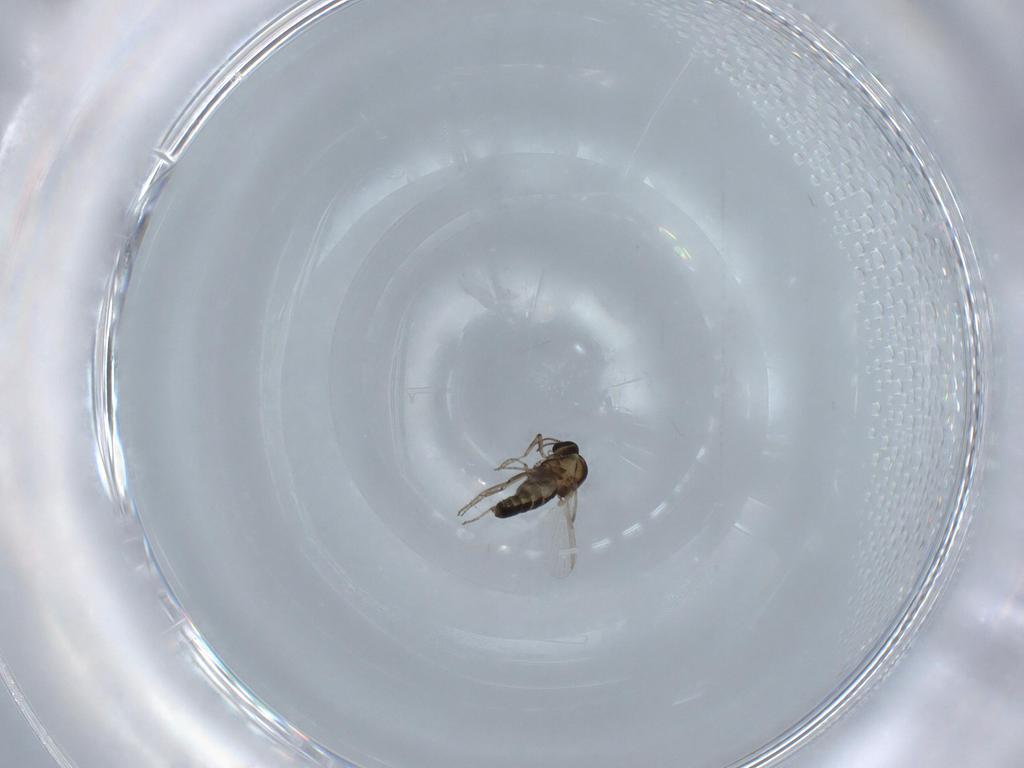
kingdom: Animalia
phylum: Arthropoda
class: Insecta
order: Diptera
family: Ceratopogonidae
